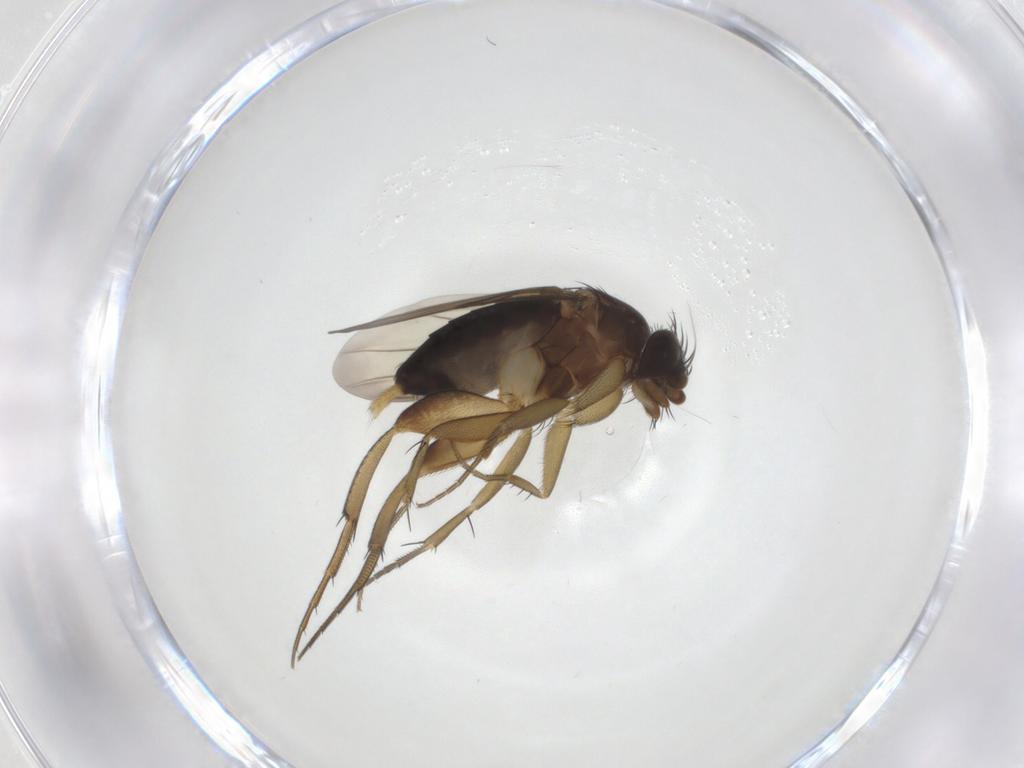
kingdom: Animalia
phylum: Arthropoda
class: Insecta
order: Diptera
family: Phoridae
